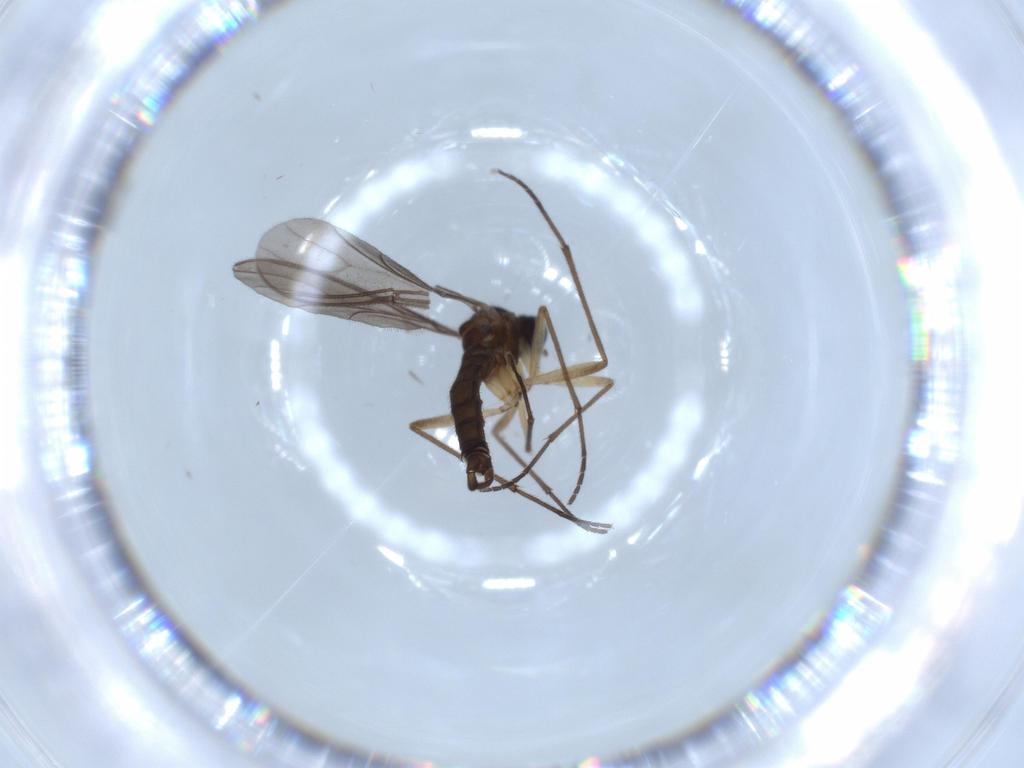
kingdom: Animalia
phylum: Arthropoda
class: Insecta
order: Diptera
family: Sciaridae
